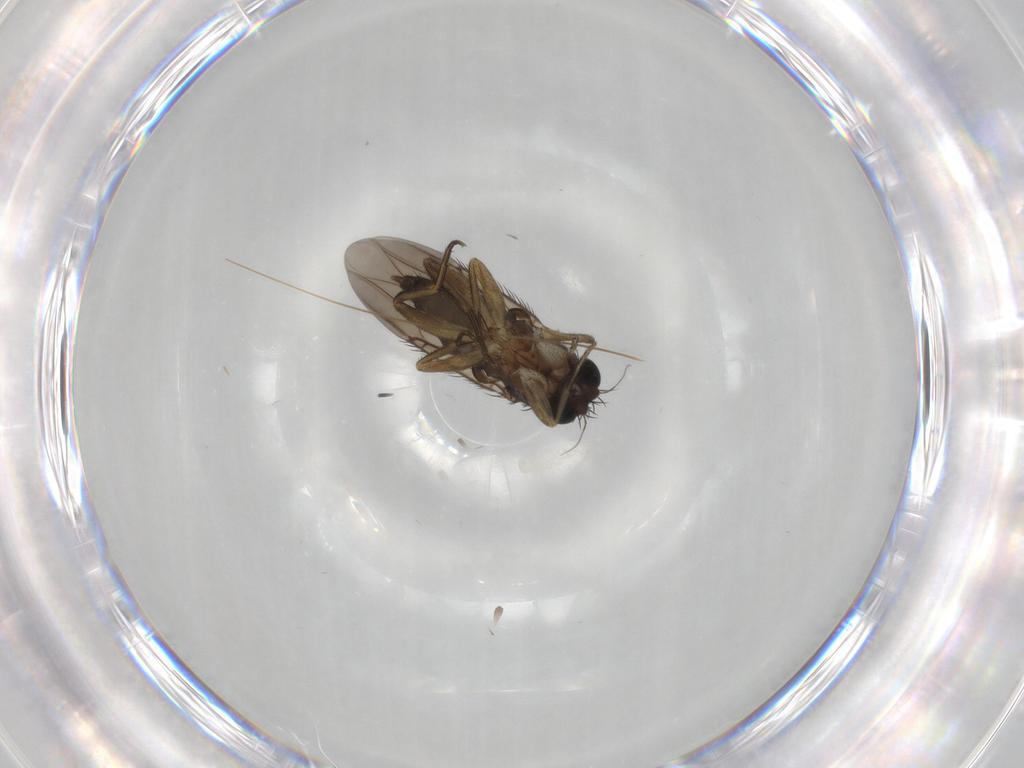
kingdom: Animalia
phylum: Arthropoda
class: Insecta
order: Diptera
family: Phoridae
